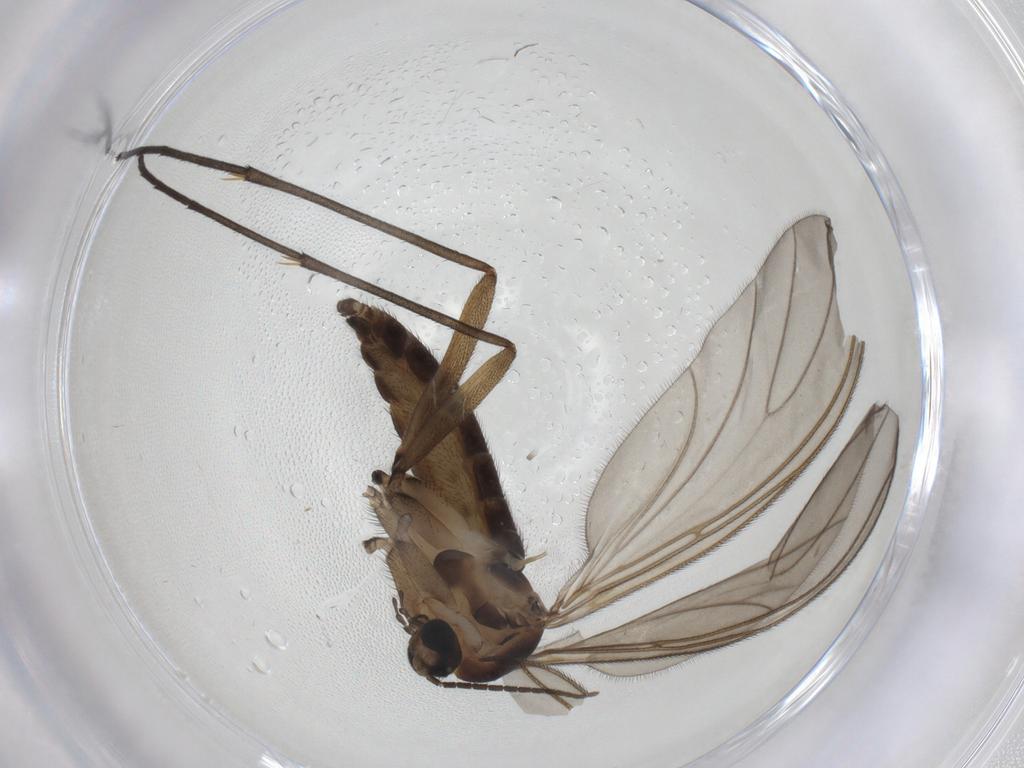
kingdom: Animalia
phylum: Arthropoda
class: Insecta
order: Diptera
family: Sciaridae
